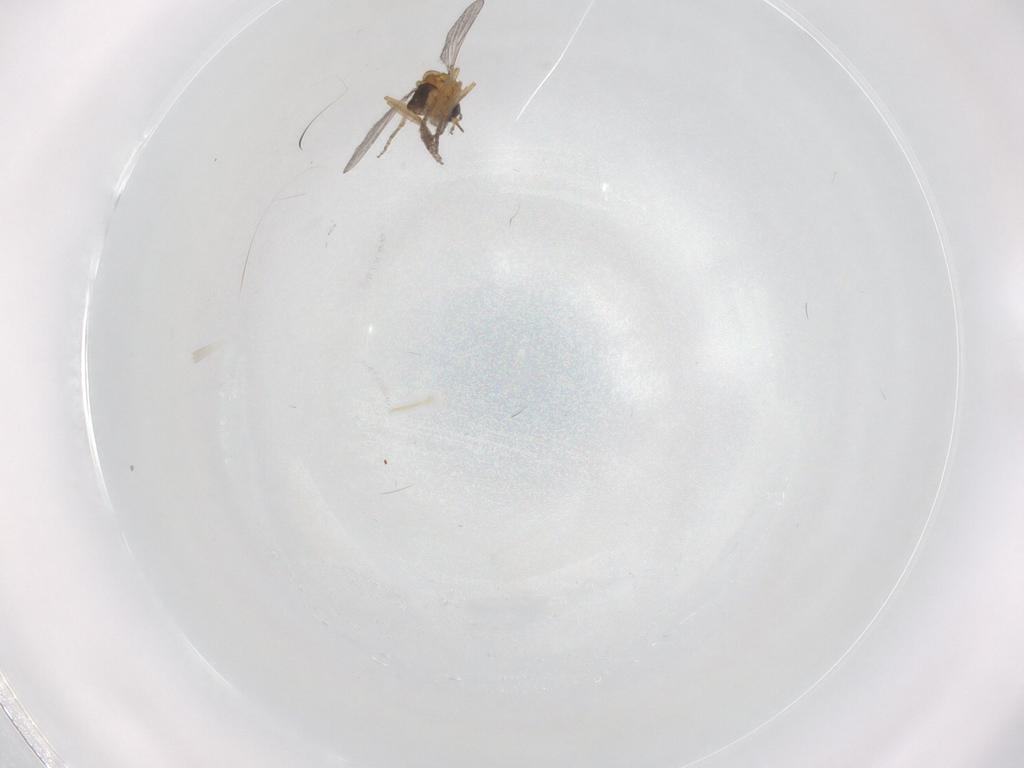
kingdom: Animalia
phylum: Arthropoda
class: Insecta
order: Diptera
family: Ceratopogonidae
